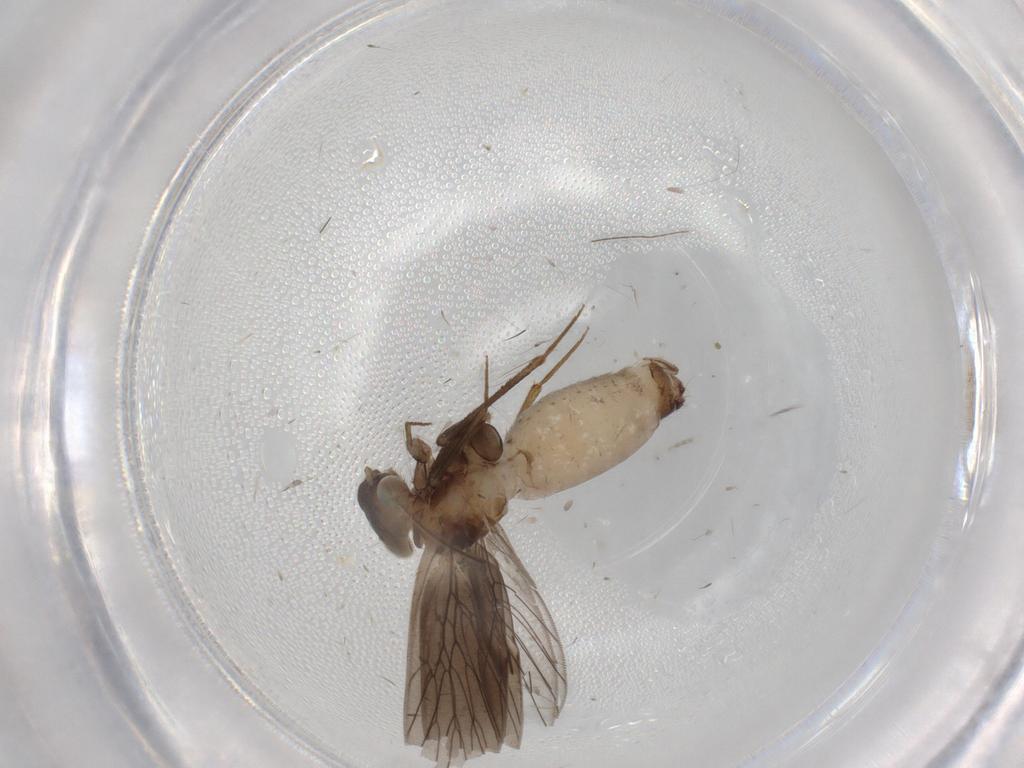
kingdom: Animalia
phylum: Arthropoda
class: Insecta
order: Psocodea
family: Lepidopsocidae
